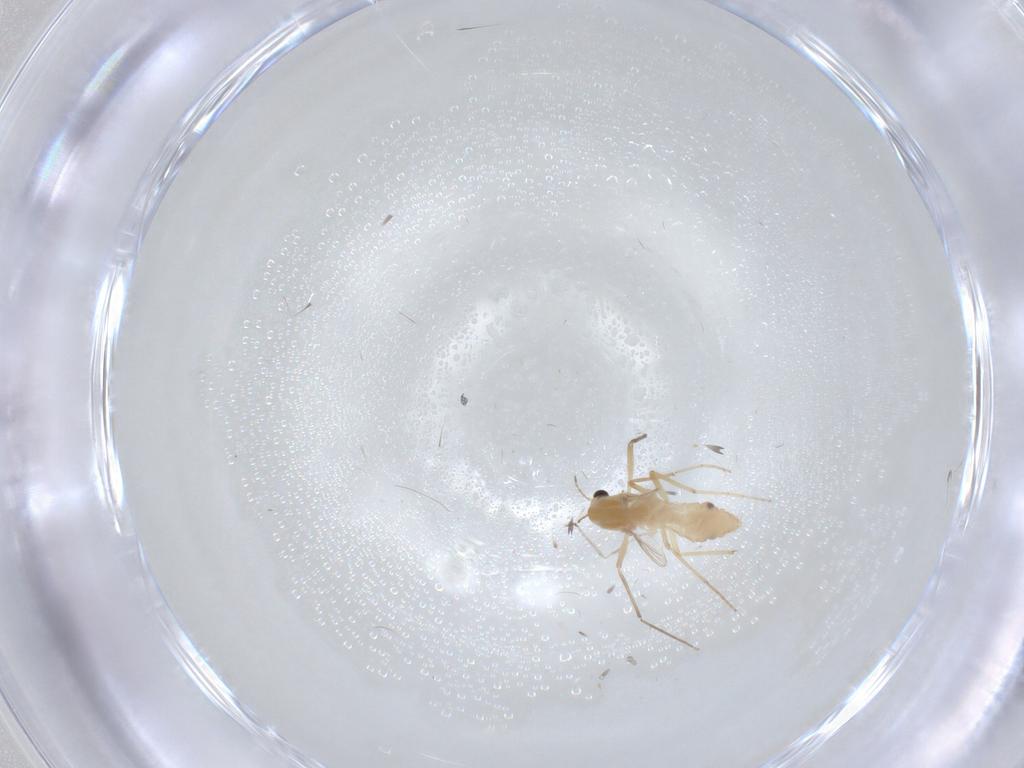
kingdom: Animalia
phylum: Arthropoda
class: Insecta
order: Diptera
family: Chironomidae
